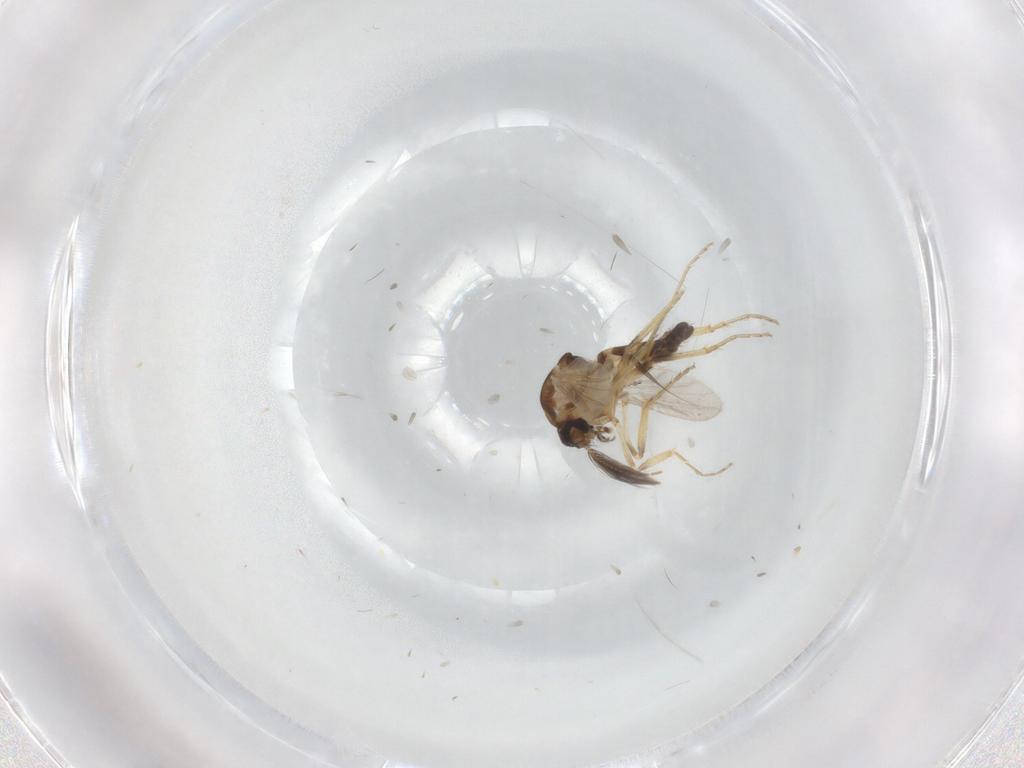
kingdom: Animalia
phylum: Arthropoda
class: Insecta
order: Diptera
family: Ceratopogonidae
